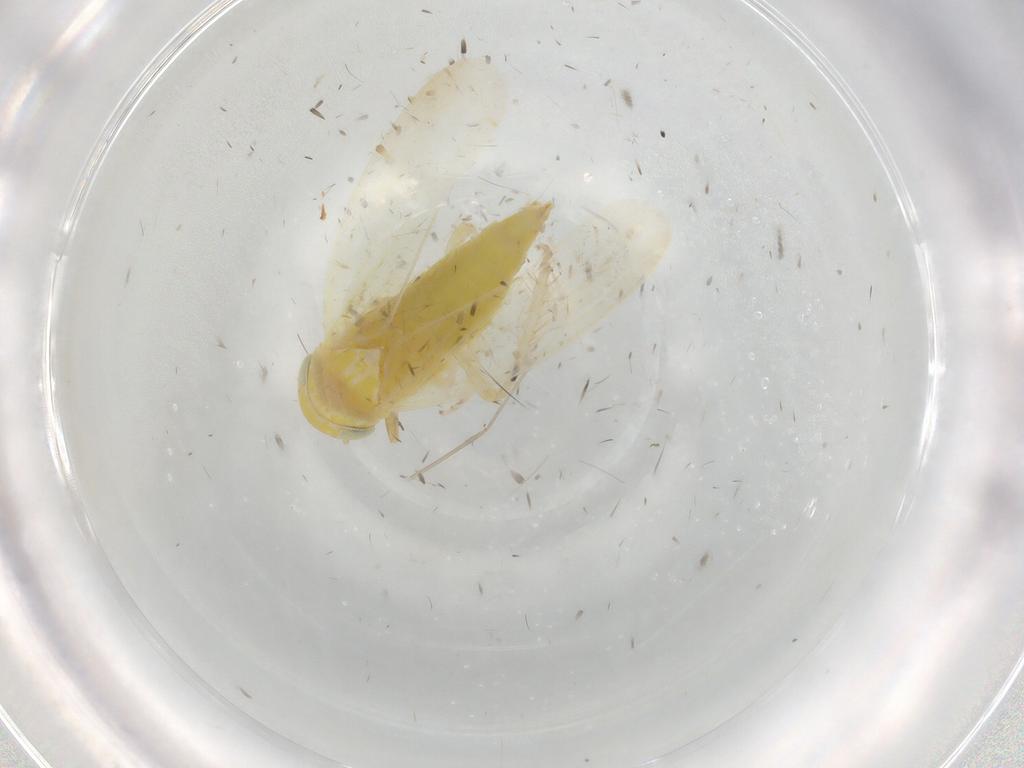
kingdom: Animalia
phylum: Arthropoda
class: Insecta
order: Hemiptera
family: Cicadellidae
